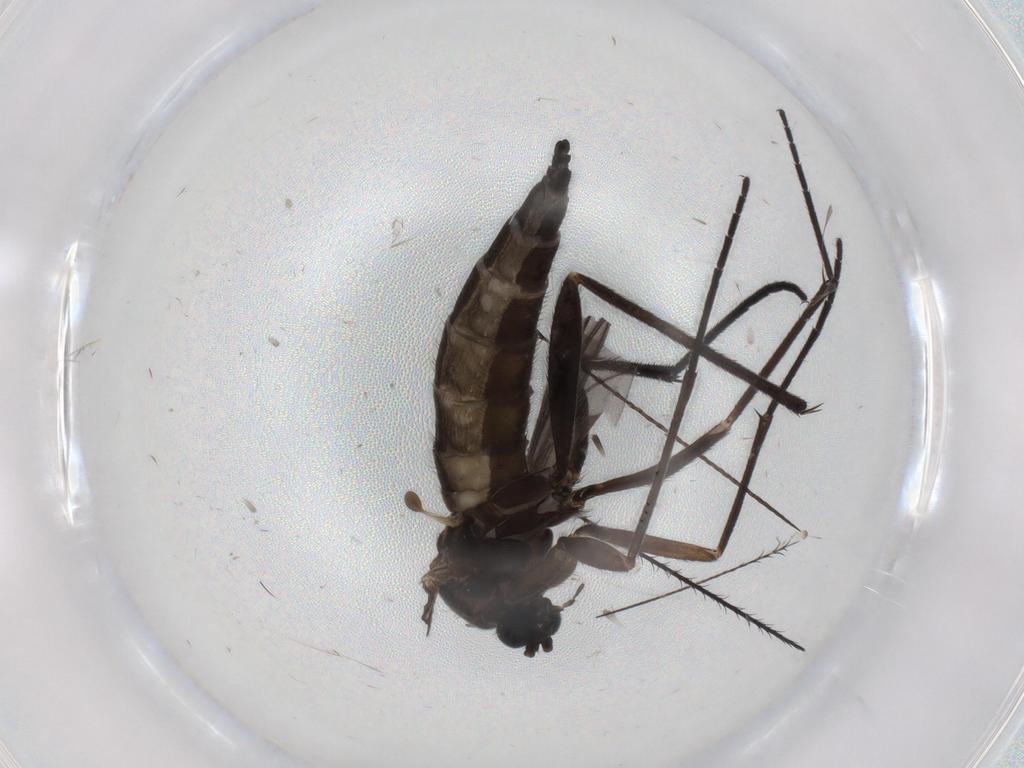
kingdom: Animalia
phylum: Arthropoda
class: Insecta
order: Diptera
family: Sciaridae
